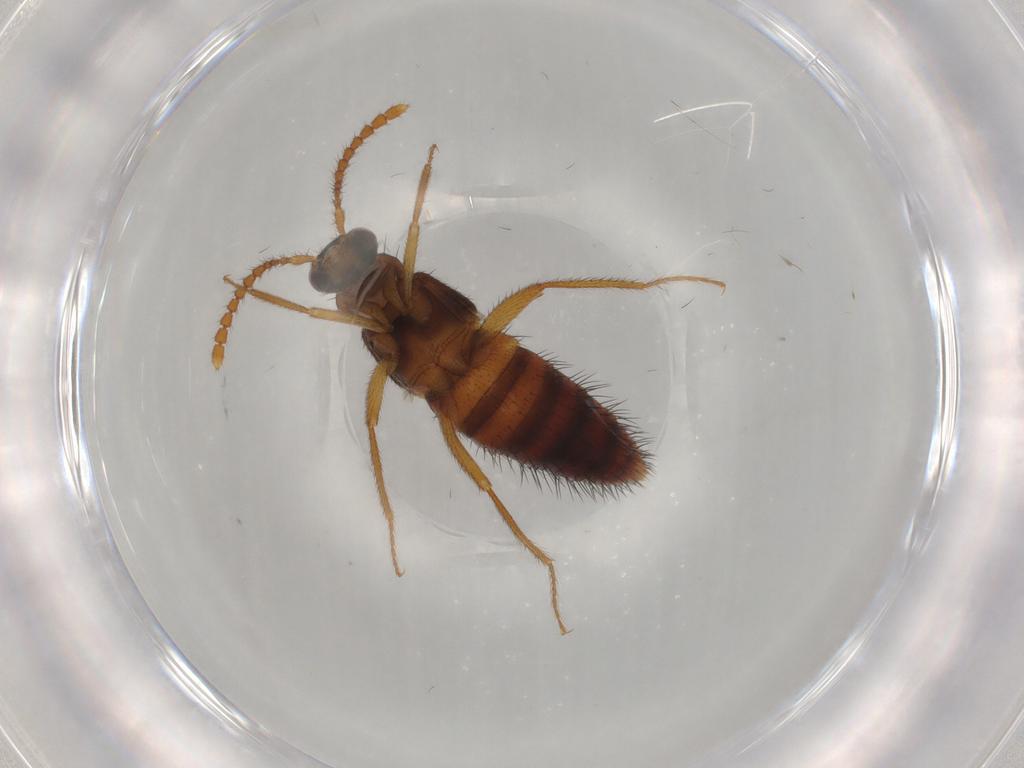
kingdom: Animalia
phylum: Arthropoda
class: Insecta
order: Coleoptera
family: Staphylinidae
